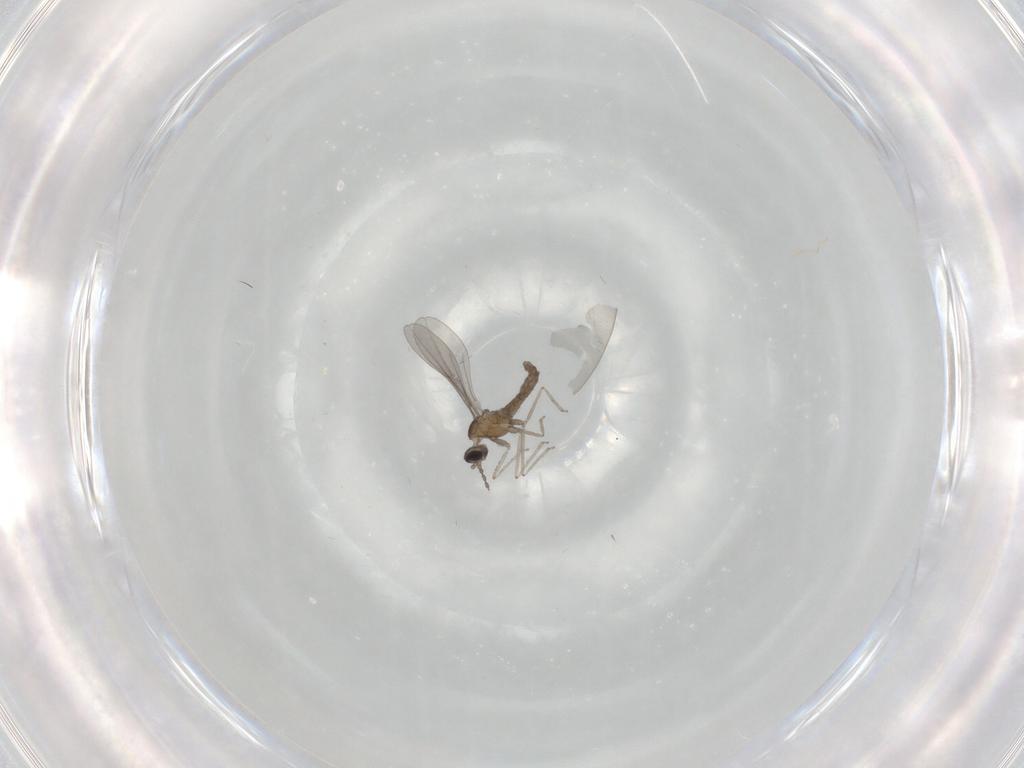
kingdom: Animalia
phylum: Arthropoda
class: Insecta
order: Diptera
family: Cecidomyiidae
